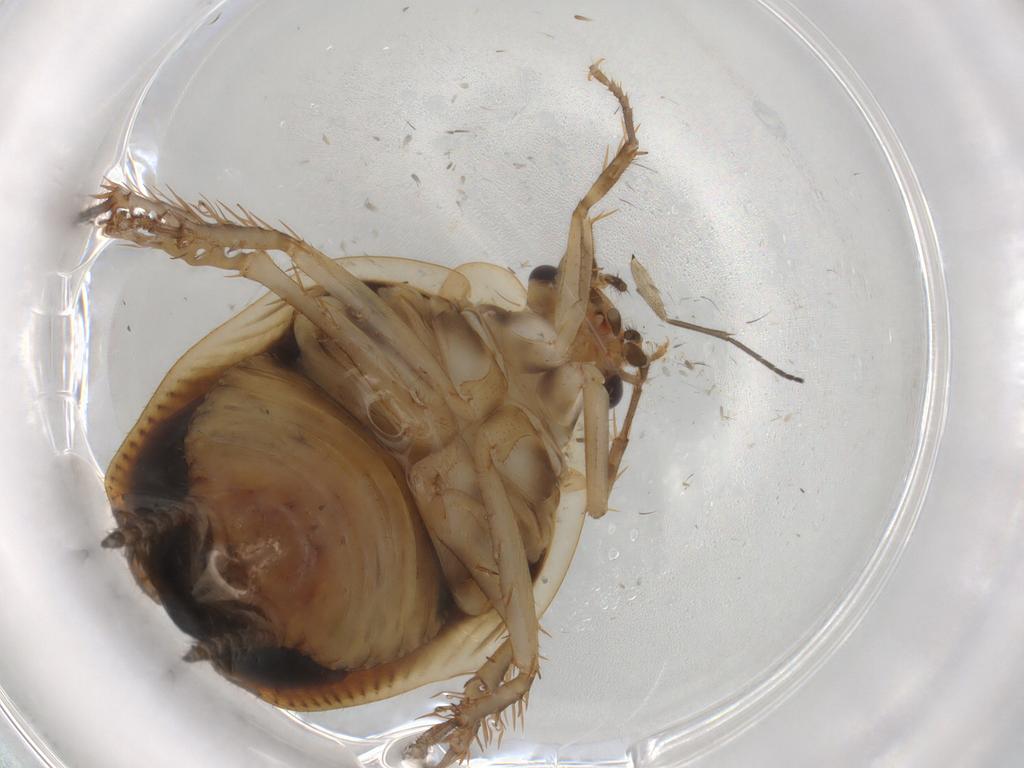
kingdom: Animalia
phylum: Arthropoda
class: Insecta
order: Blattodea
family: Ectobiidae
